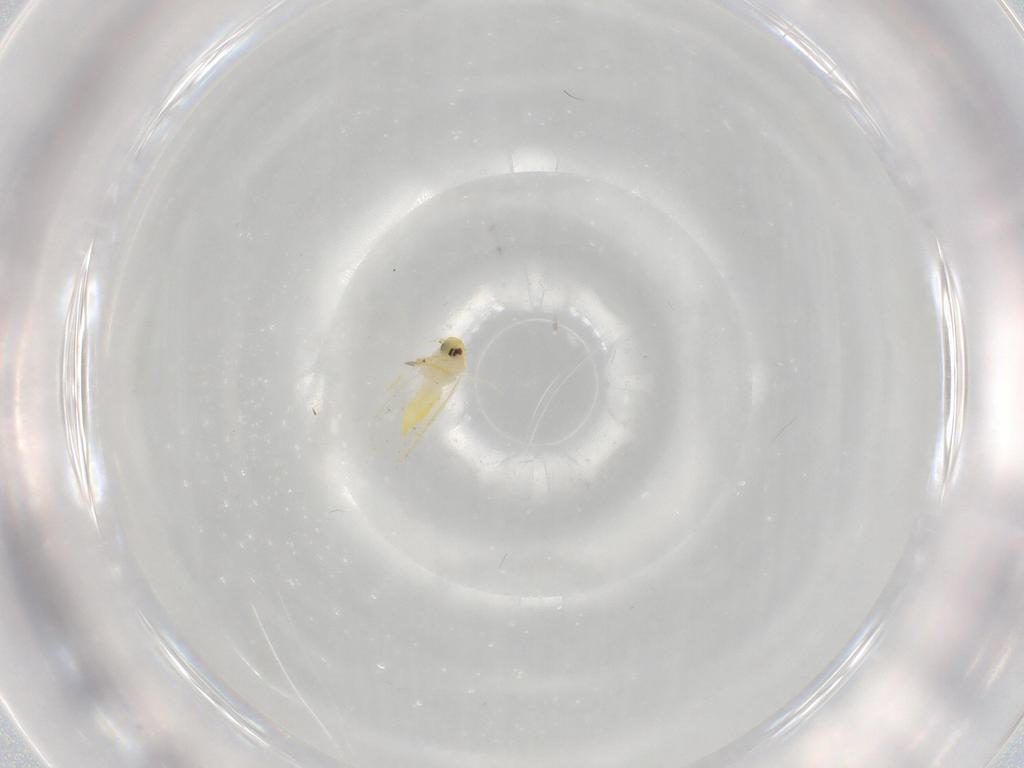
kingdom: Animalia
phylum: Arthropoda
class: Insecta
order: Hemiptera
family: Aleyrodidae
